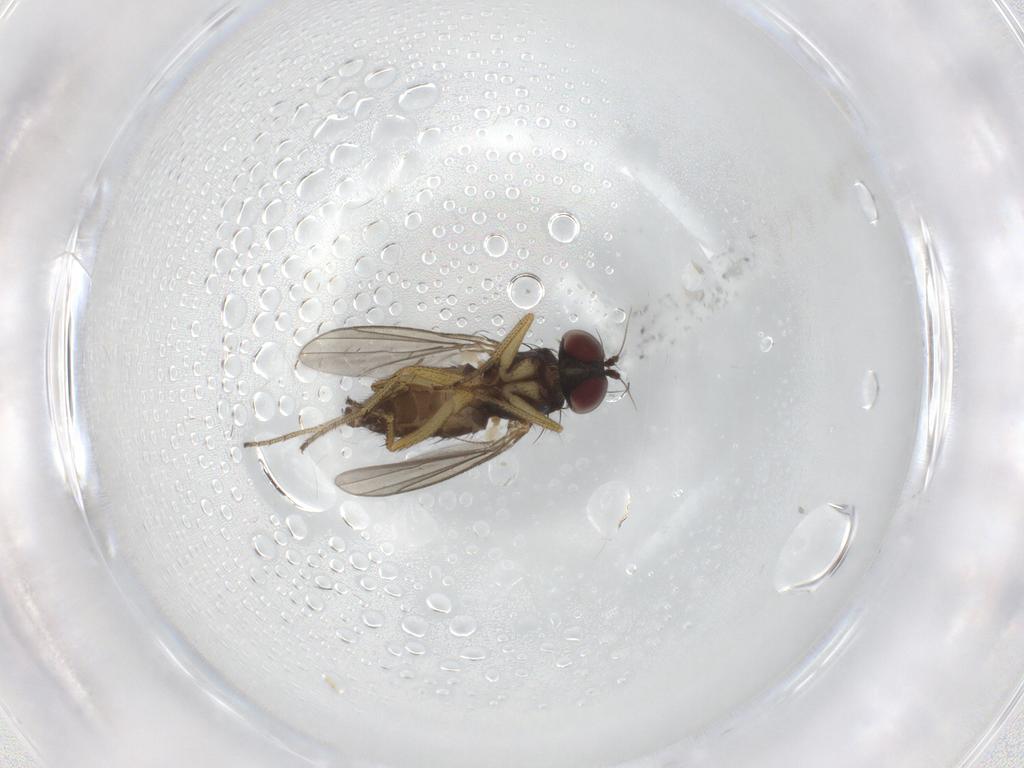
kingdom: Animalia
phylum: Arthropoda
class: Insecta
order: Diptera
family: Dolichopodidae
